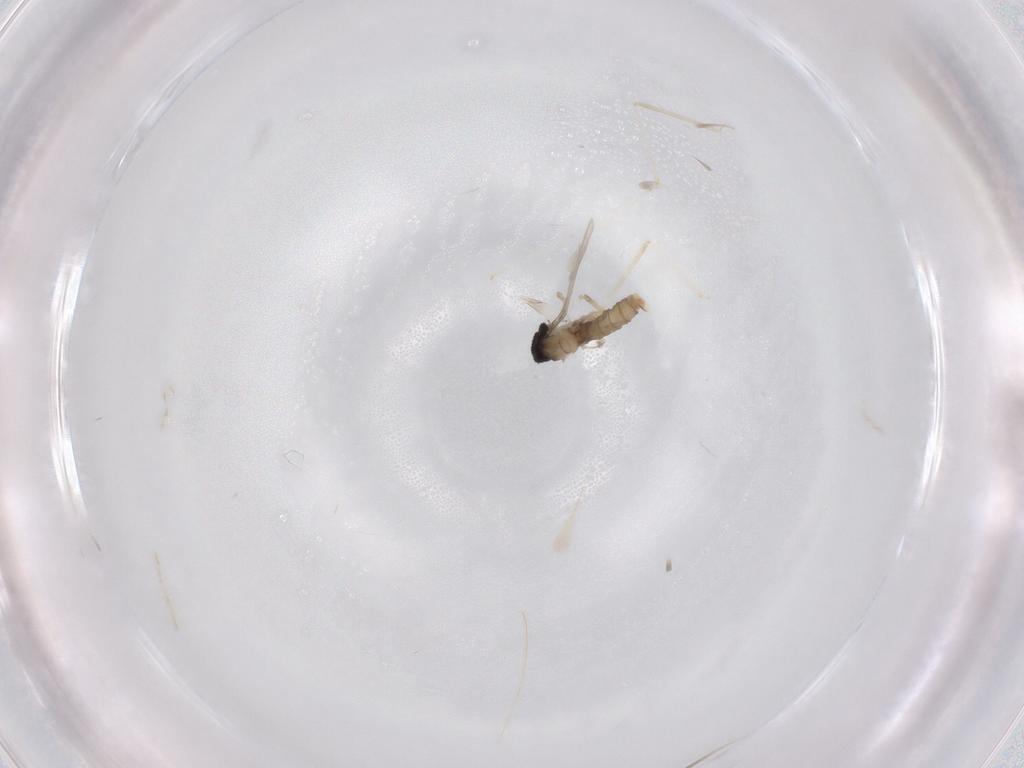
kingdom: Animalia
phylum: Arthropoda
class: Insecta
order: Diptera
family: Cecidomyiidae
